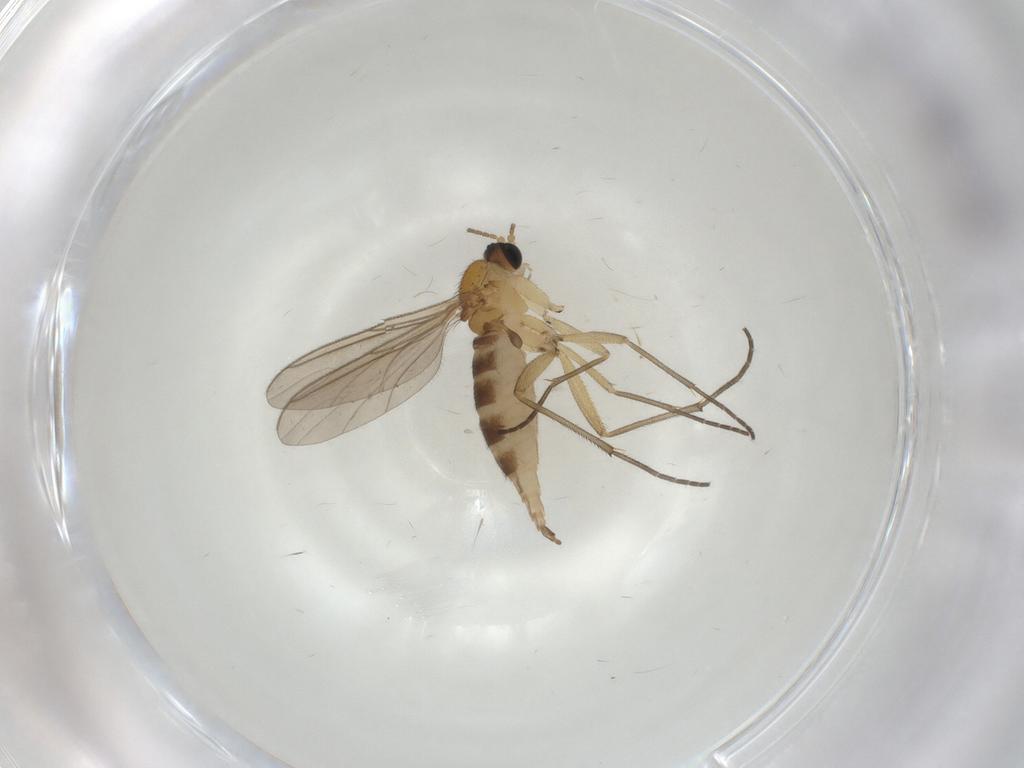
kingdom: Animalia
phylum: Arthropoda
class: Insecta
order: Diptera
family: Sciaridae
